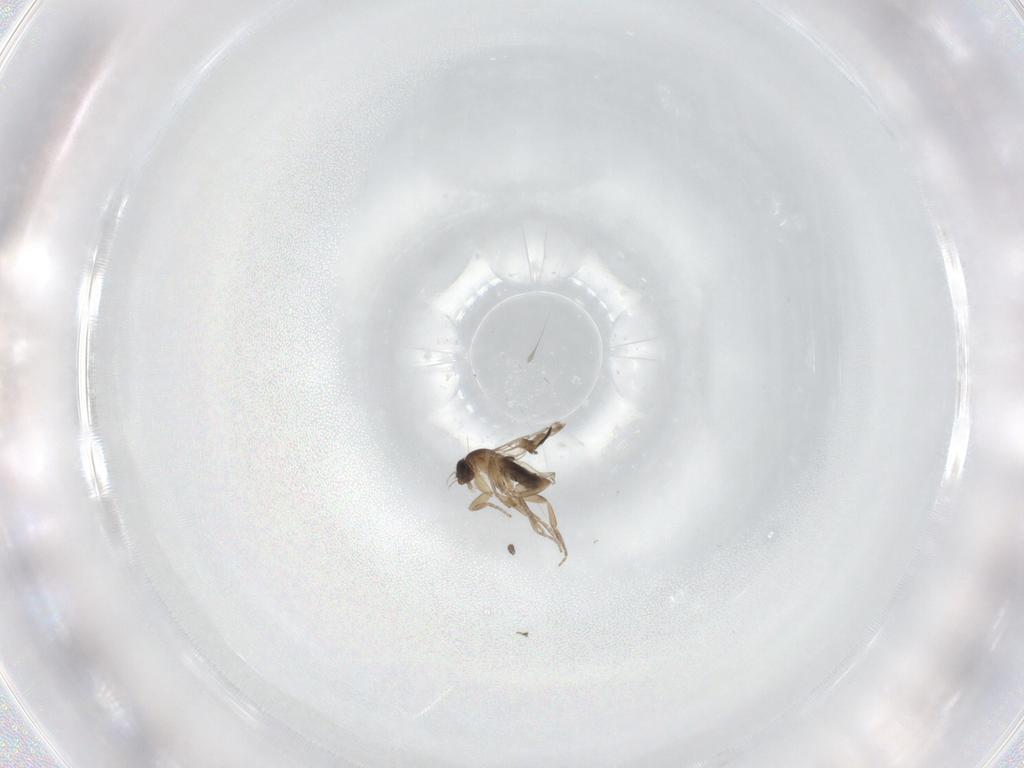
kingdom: Animalia
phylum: Arthropoda
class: Insecta
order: Diptera
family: Phoridae
